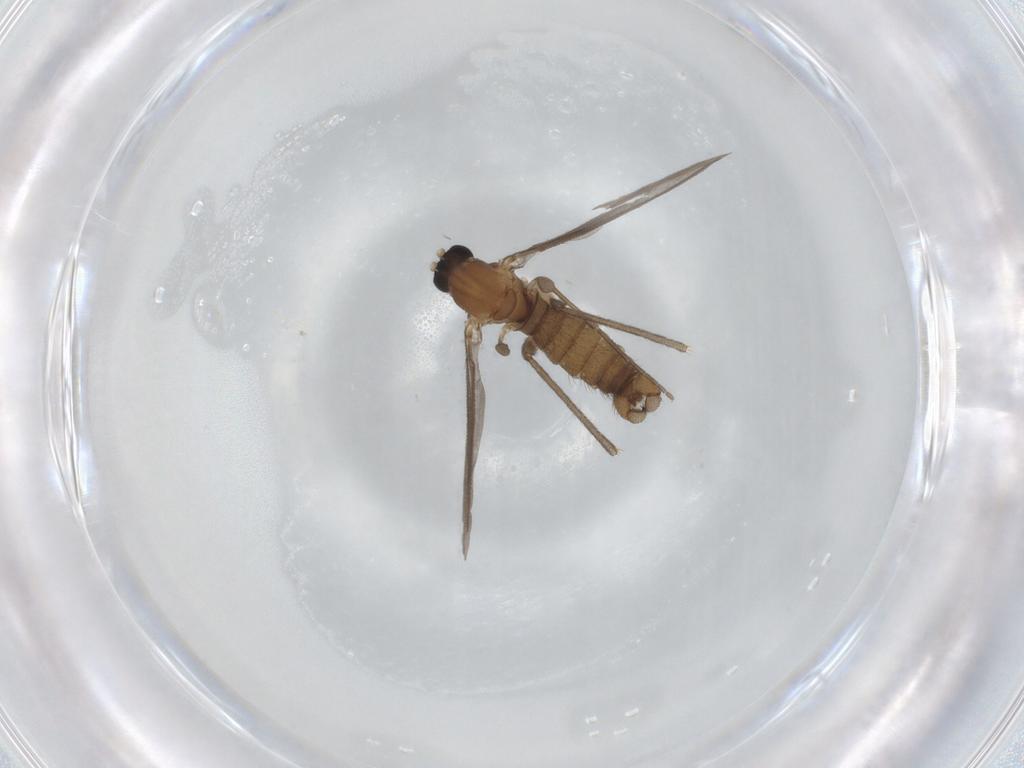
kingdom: Animalia
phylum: Arthropoda
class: Insecta
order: Diptera
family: Sciaridae
